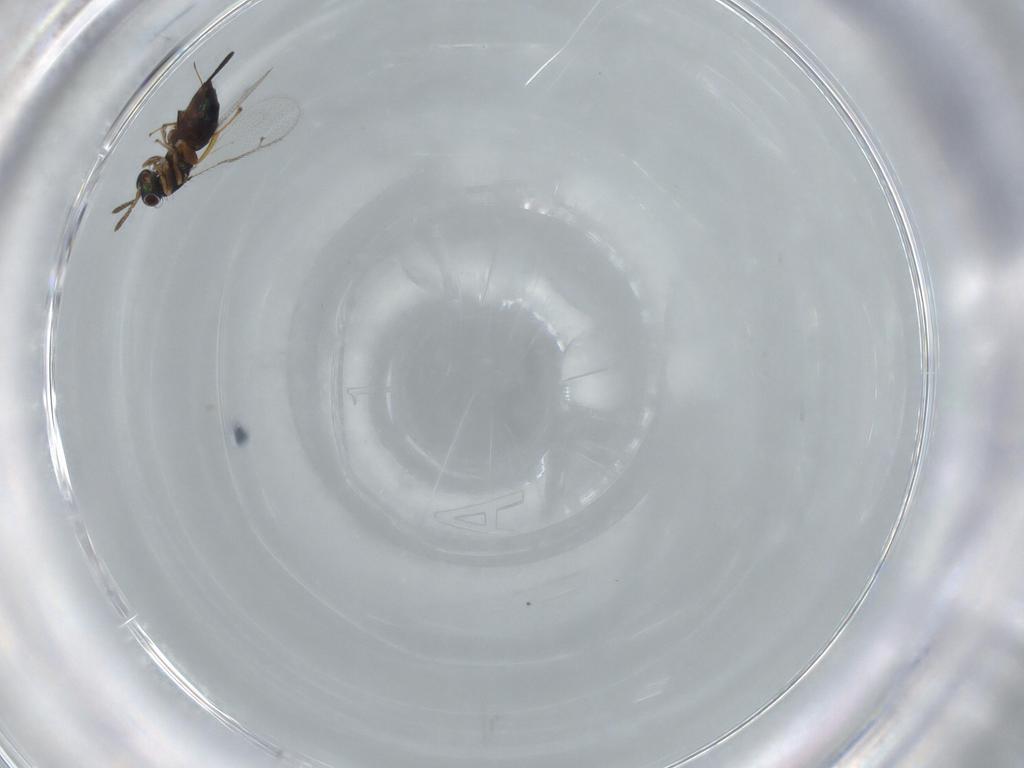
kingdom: Animalia
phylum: Arthropoda
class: Insecta
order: Hymenoptera
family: Torymidae
